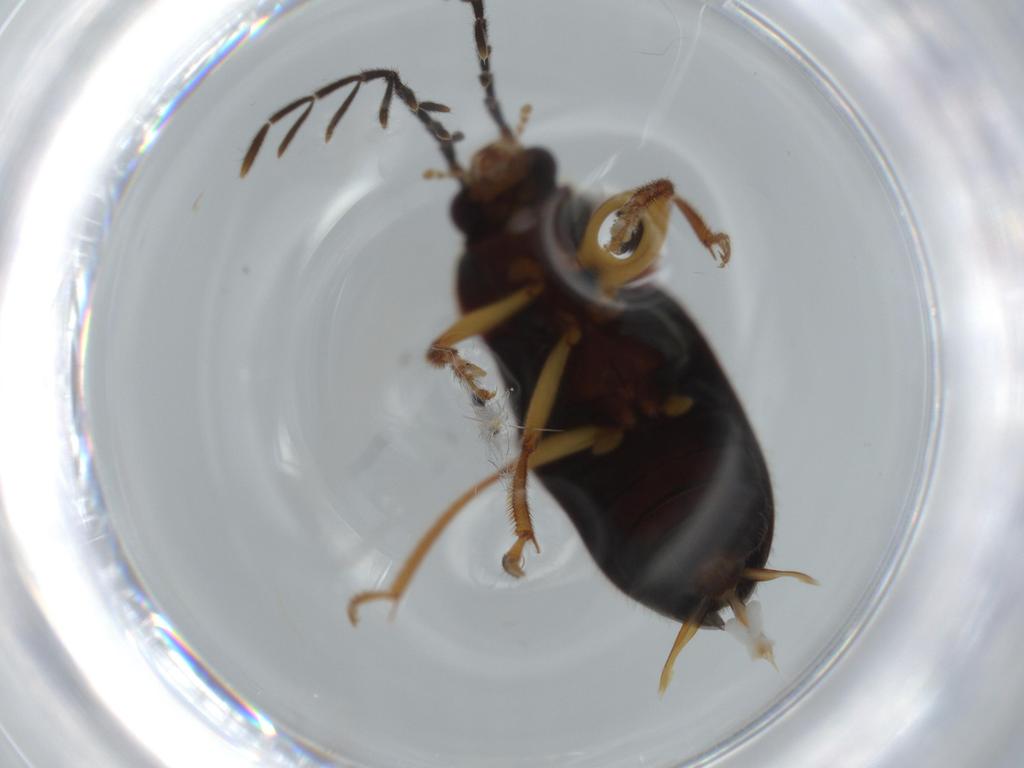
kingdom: Animalia
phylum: Arthropoda
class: Insecta
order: Coleoptera
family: Ptilodactylidae
